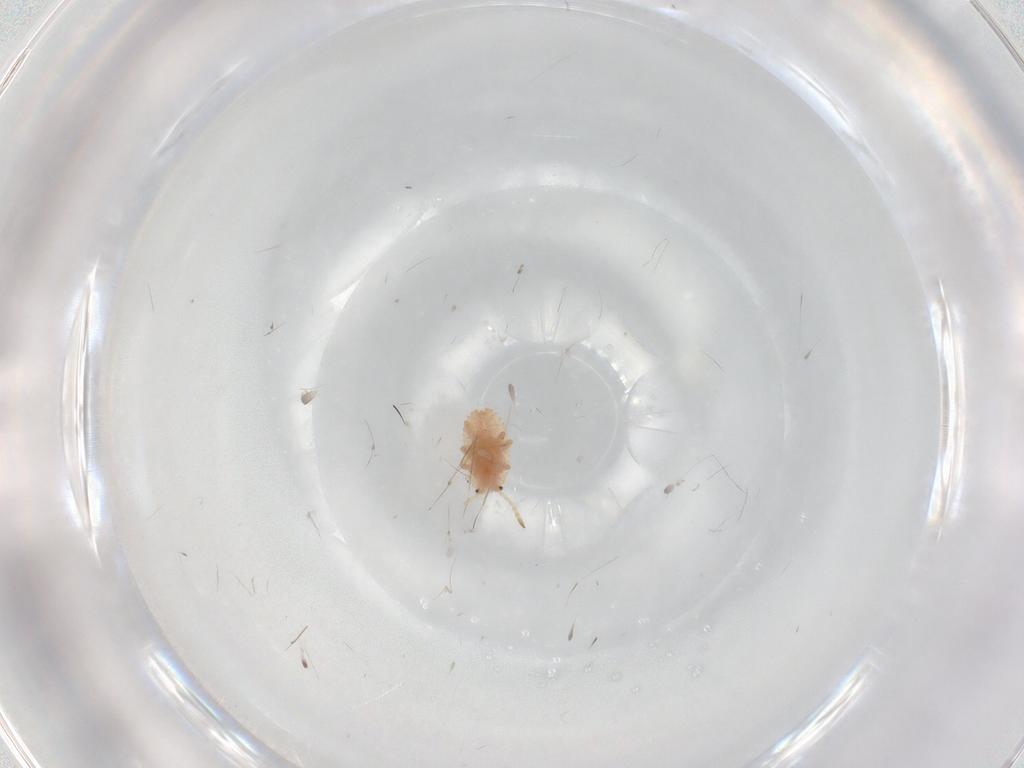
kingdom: Animalia
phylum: Arthropoda
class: Insecta
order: Hemiptera
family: Coccoidea_incertae_sedis
